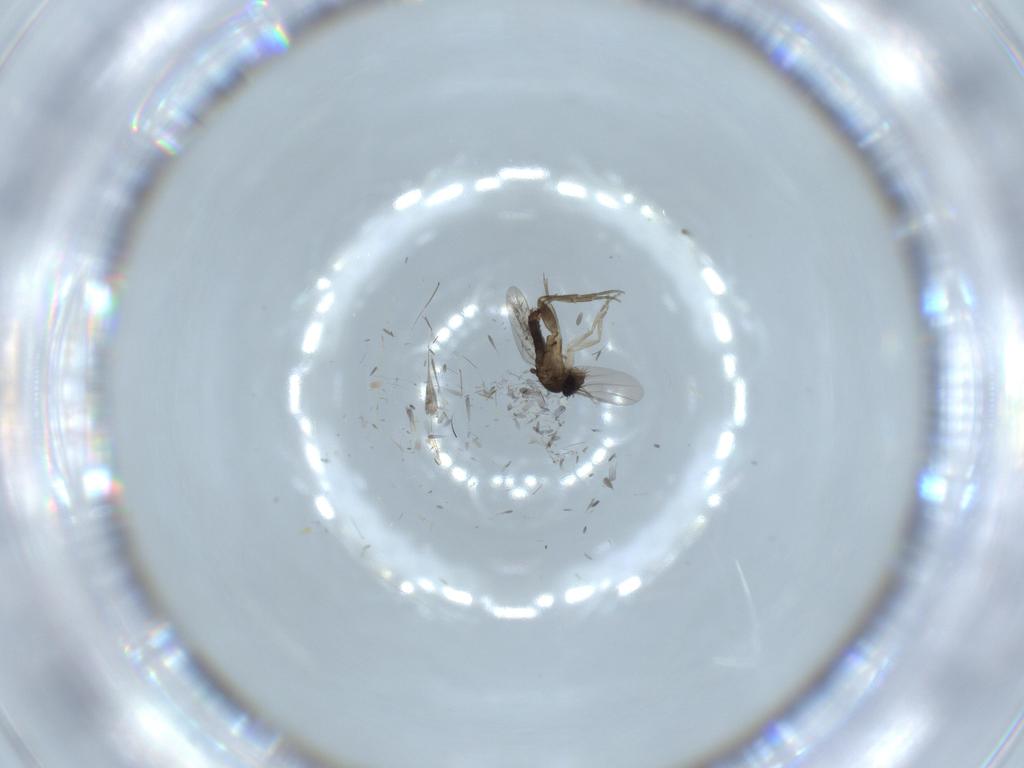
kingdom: Animalia
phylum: Arthropoda
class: Insecta
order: Diptera
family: Phoridae
